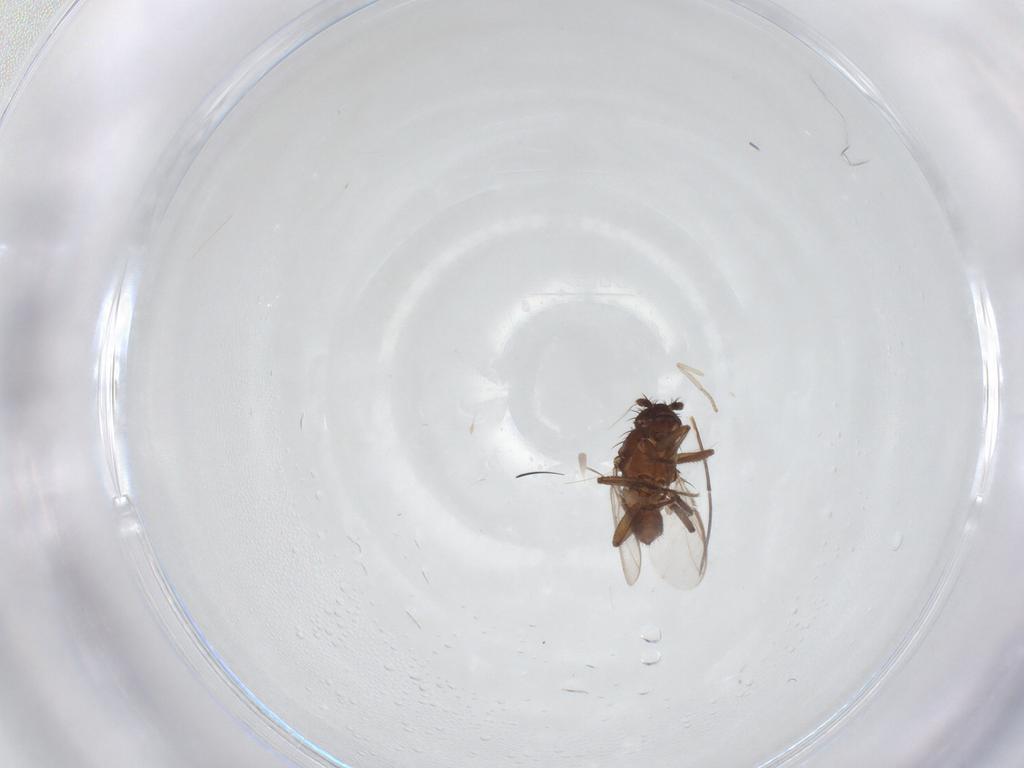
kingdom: Animalia
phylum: Arthropoda
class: Insecta
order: Diptera
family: Sphaeroceridae
